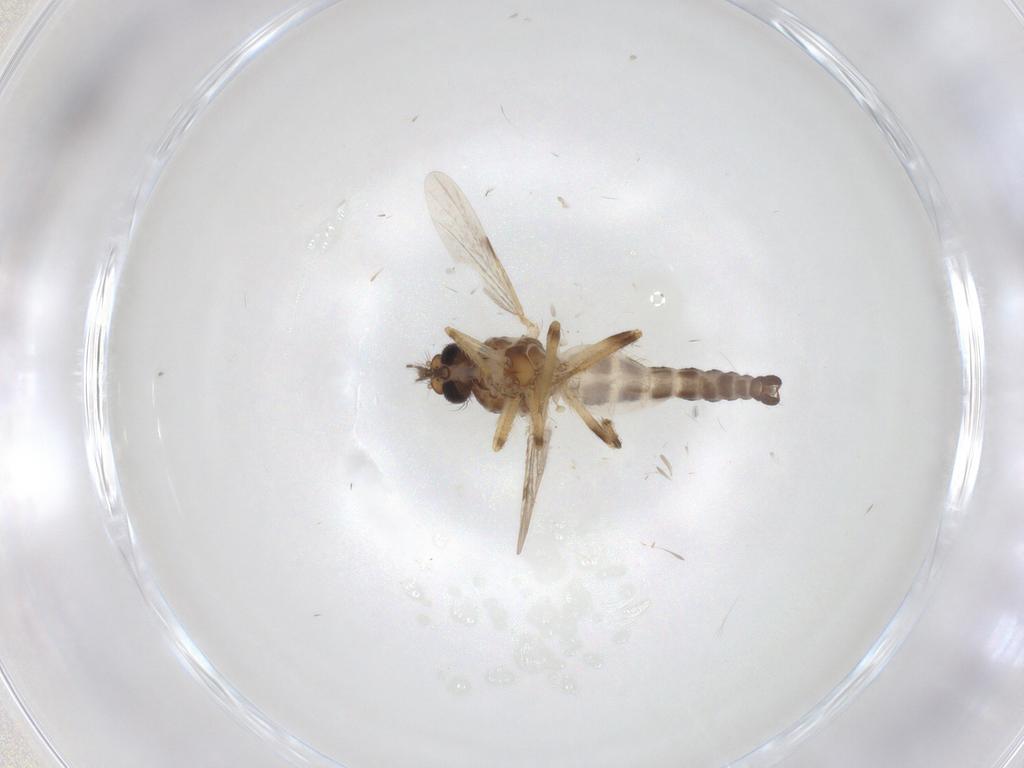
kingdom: Animalia
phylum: Arthropoda
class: Insecta
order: Diptera
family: Ceratopogonidae
